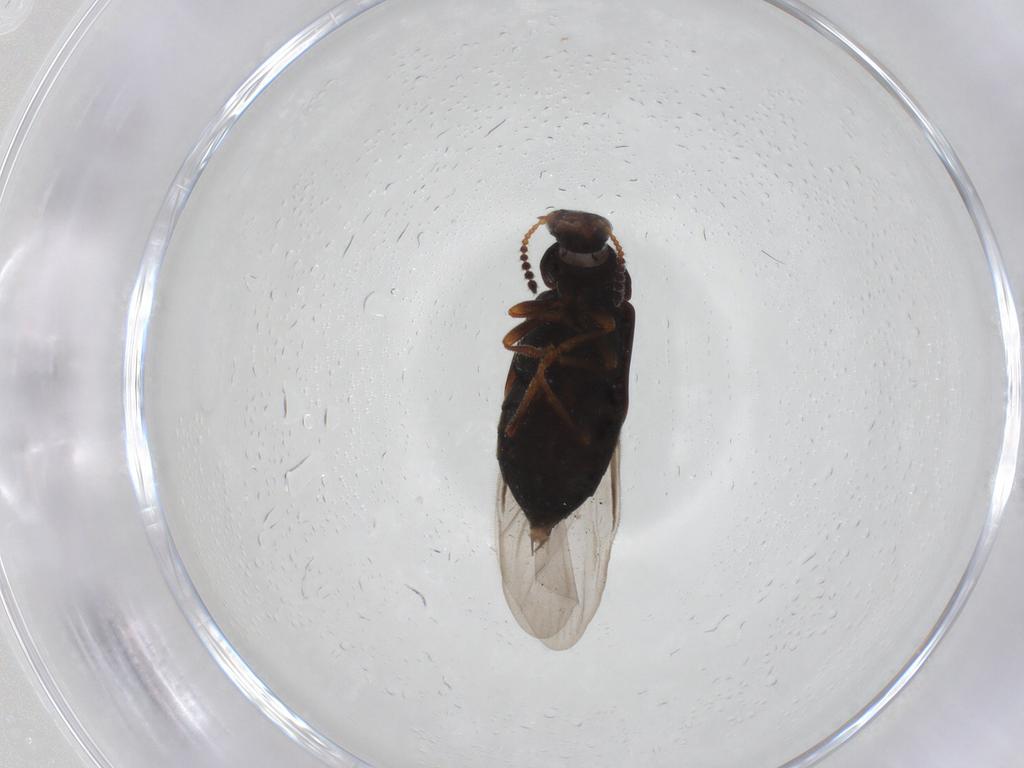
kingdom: Animalia
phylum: Arthropoda
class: Insecta
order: Coleoptera
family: Staphylinidae
